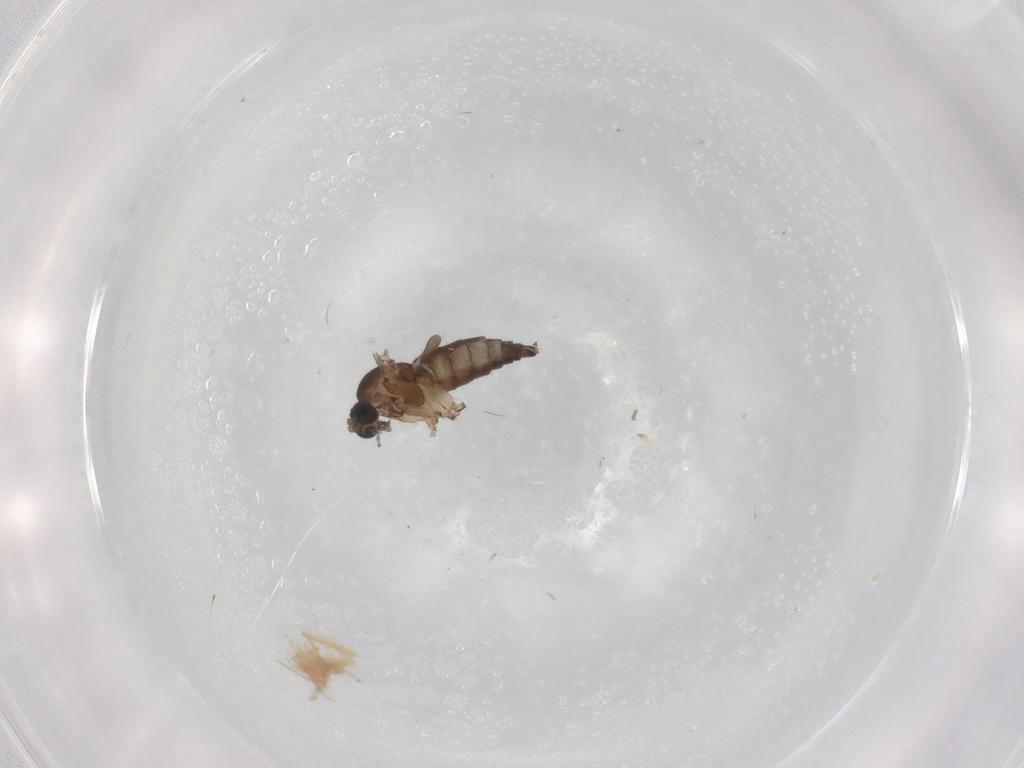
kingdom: Animalia
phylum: Arthropoda
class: Insecta
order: Diptera
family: Sciaridae
